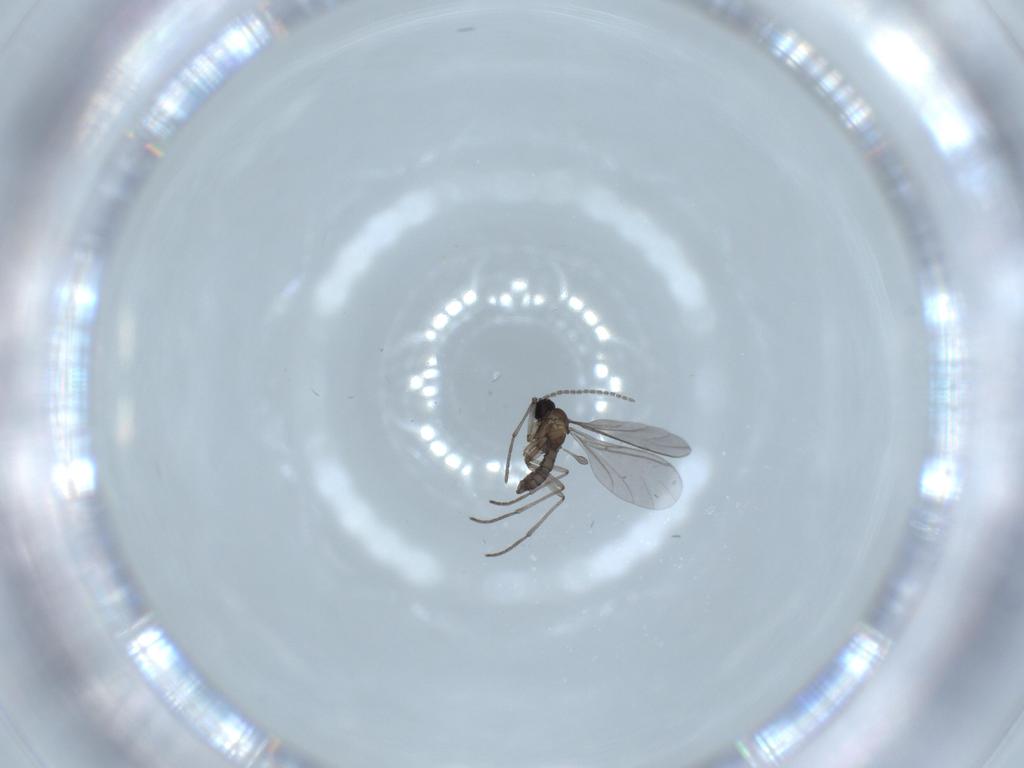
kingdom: Animalia
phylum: Arthropoda
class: Insecta
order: Diptera
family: Sciaridae
